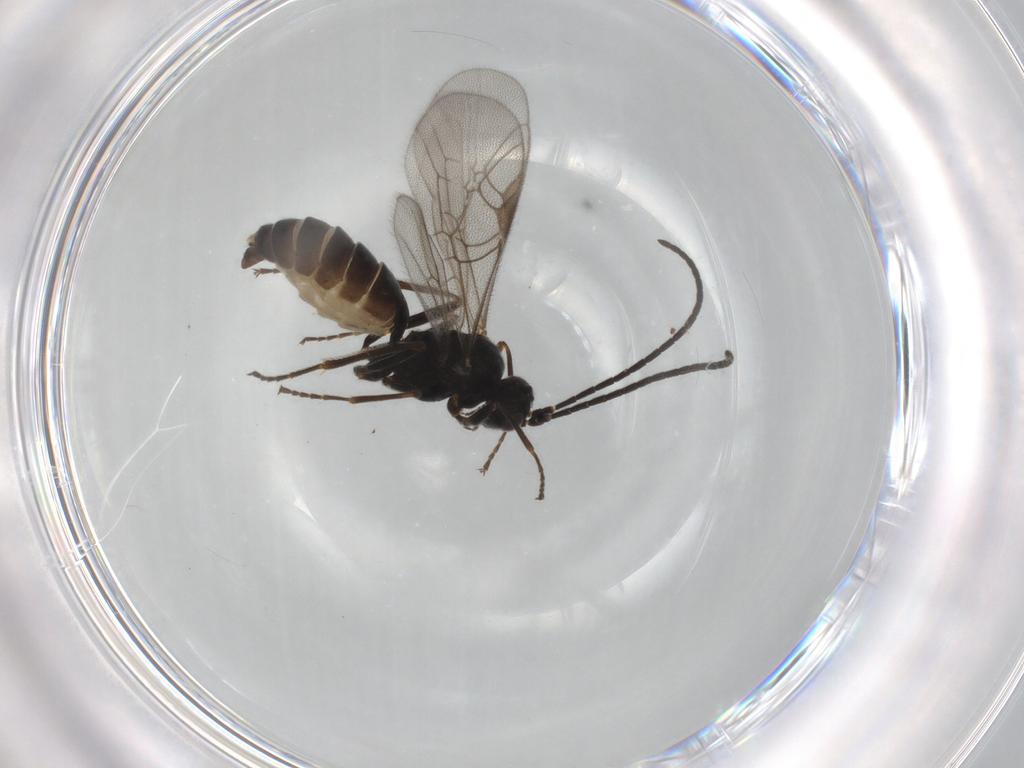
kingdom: Animalia
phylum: Arthropoda
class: Insecta
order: Hymenoptera
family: Ichneumonidae
